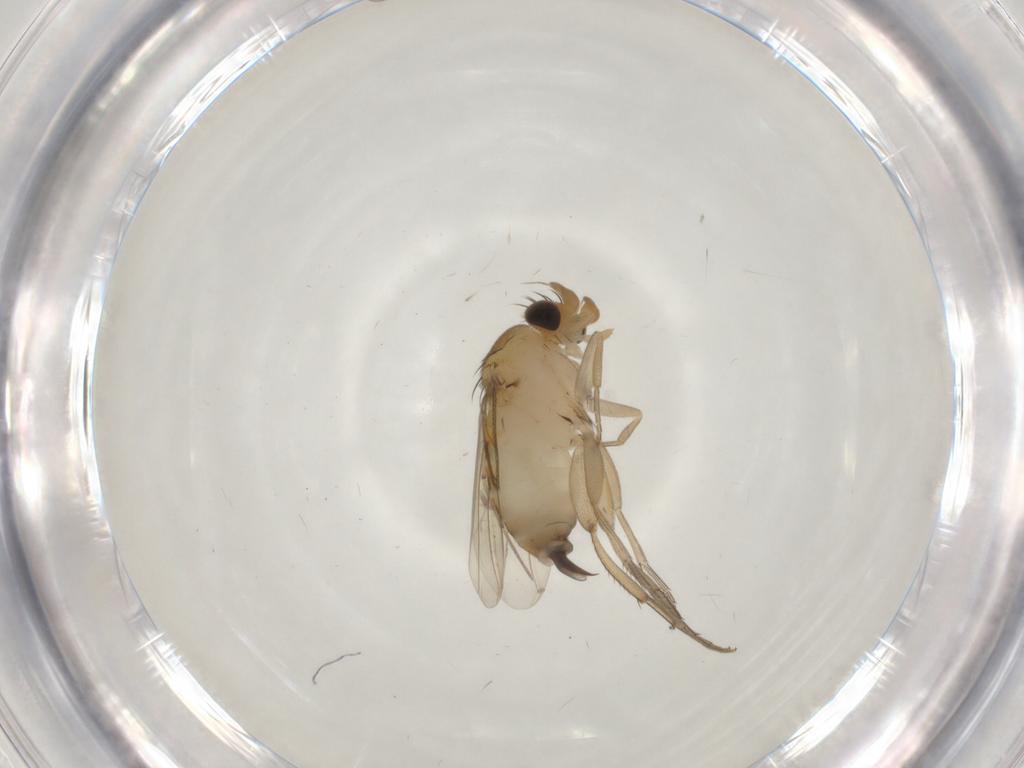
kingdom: Animalia
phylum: Arthropoda
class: Insecta
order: Diptera
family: Phoridae
